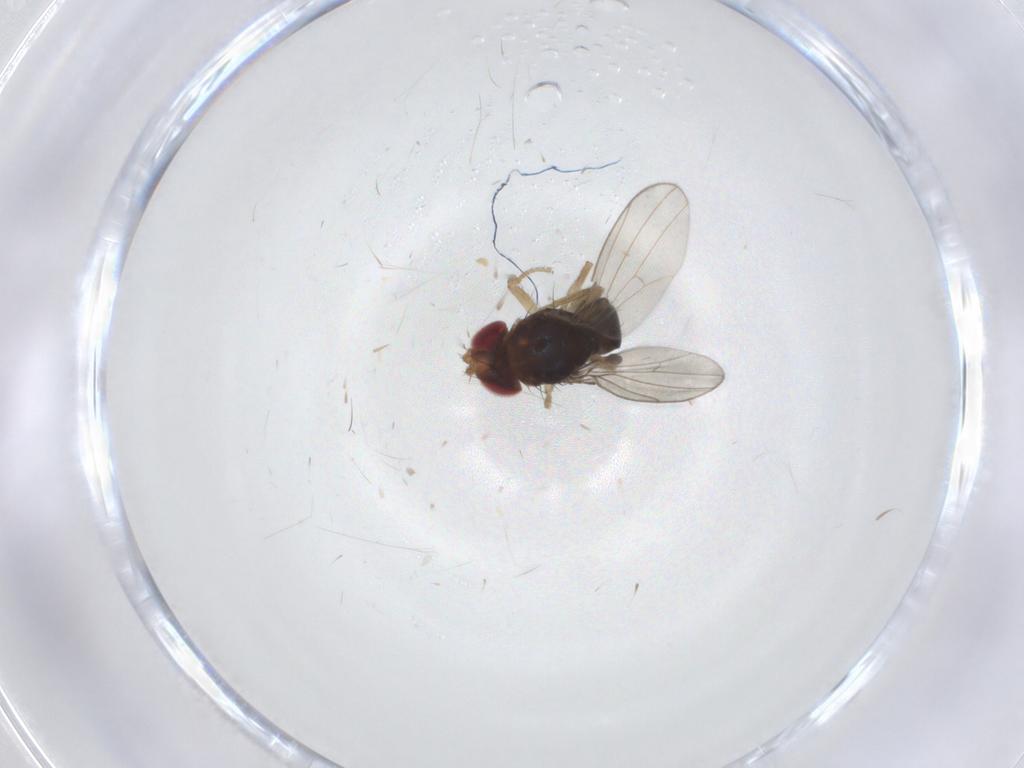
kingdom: Animalia
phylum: Arthropoda
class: Insecta
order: Diptera
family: Drosophilidae
